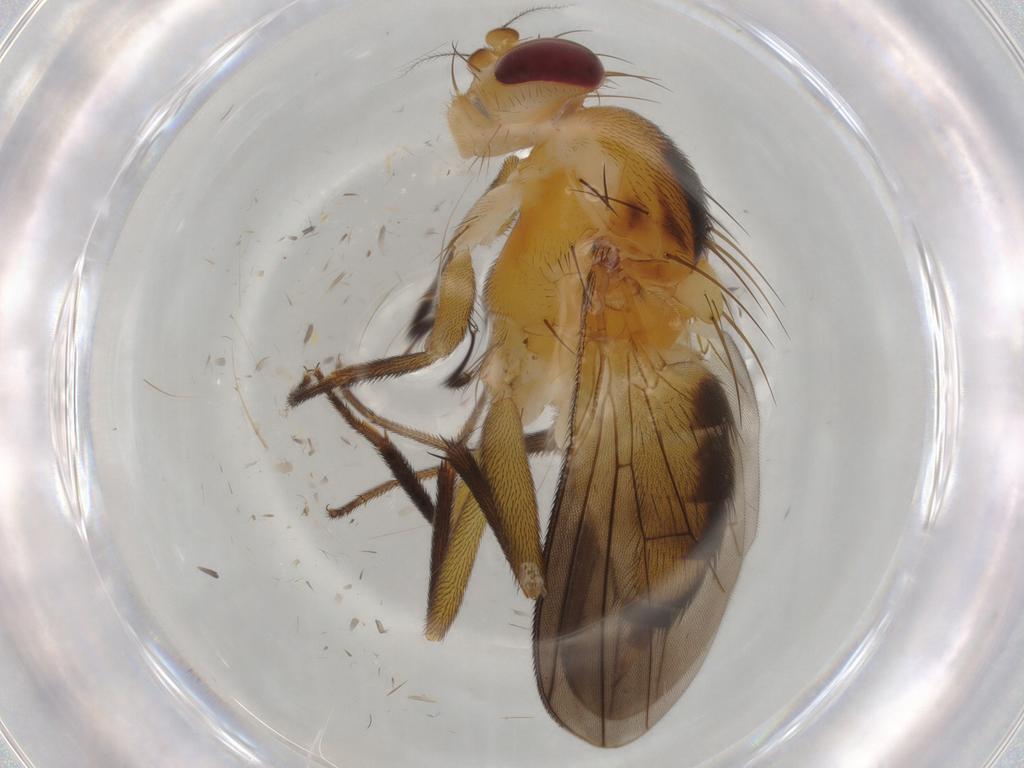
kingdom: Animalia
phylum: Arthropoda
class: Insecta
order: Diptera
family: Clusiidae
